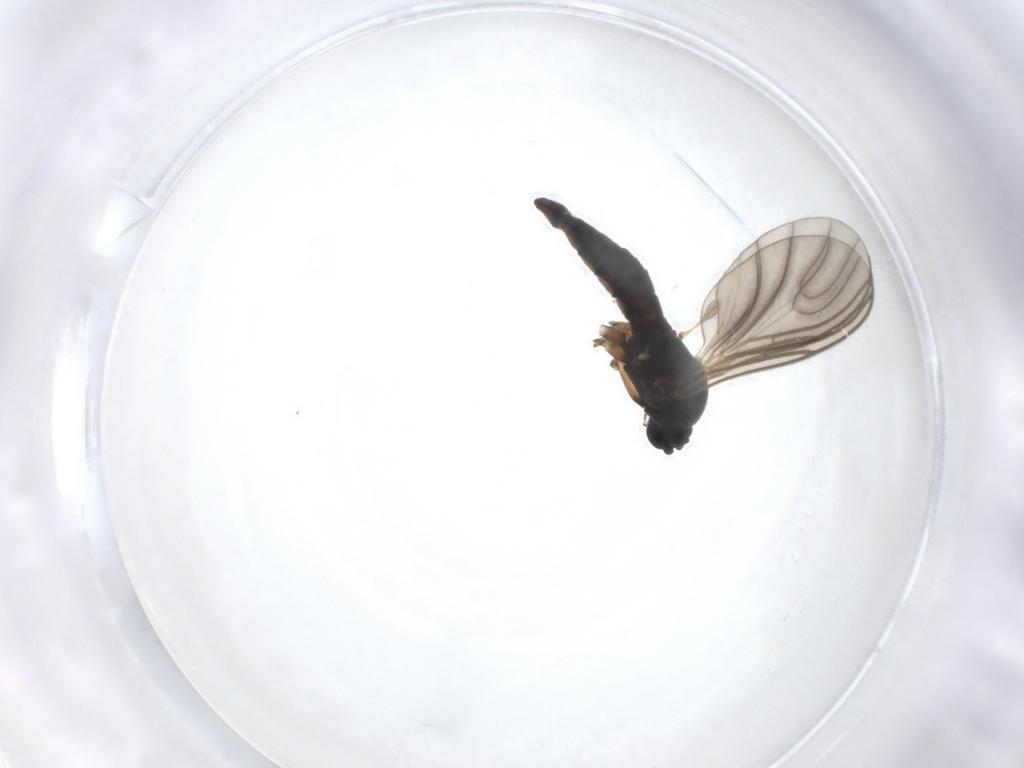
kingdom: Animalia
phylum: Arthropoda
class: Insecta
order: Diptera
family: Sciaridae
